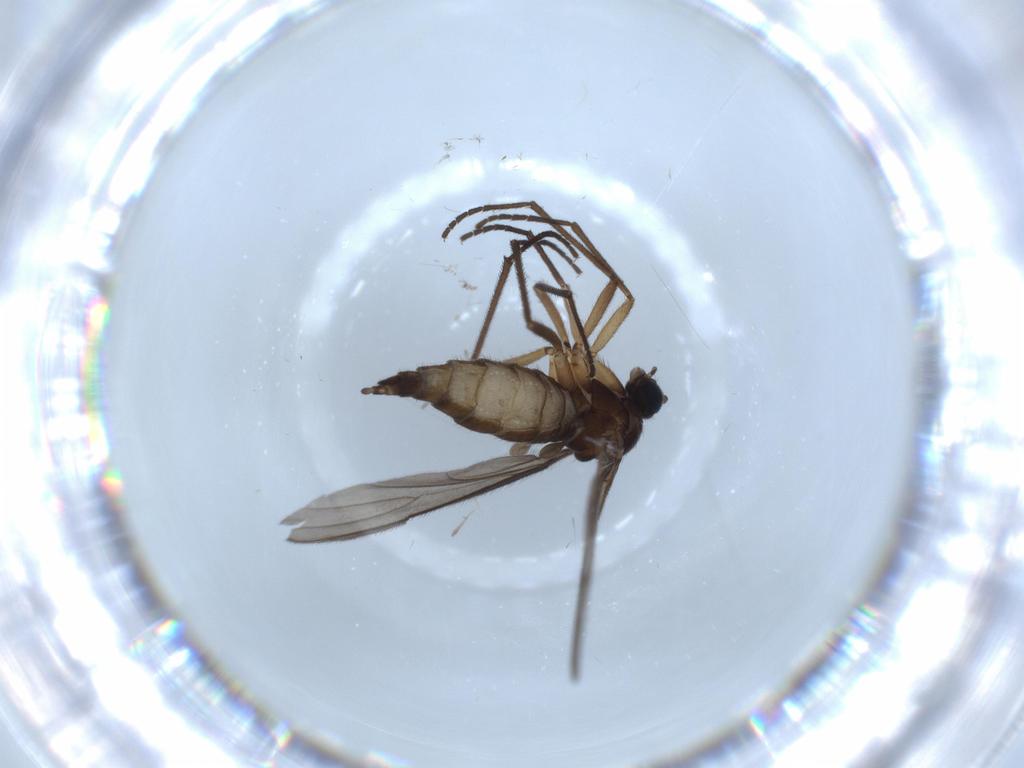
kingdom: Animalia
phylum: Arthropoda
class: Insecta
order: Diptera
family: Sciaridae
